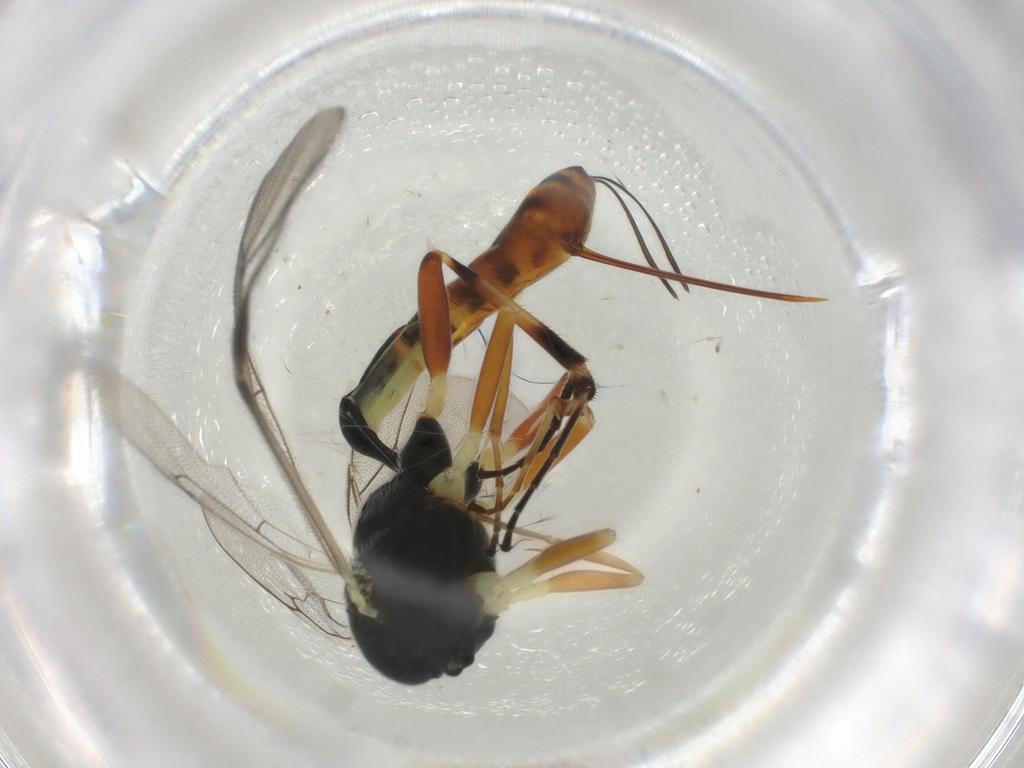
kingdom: Animalia
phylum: Arthropoda
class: Insecta
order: Hymenoptera
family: Ichneumonidae
